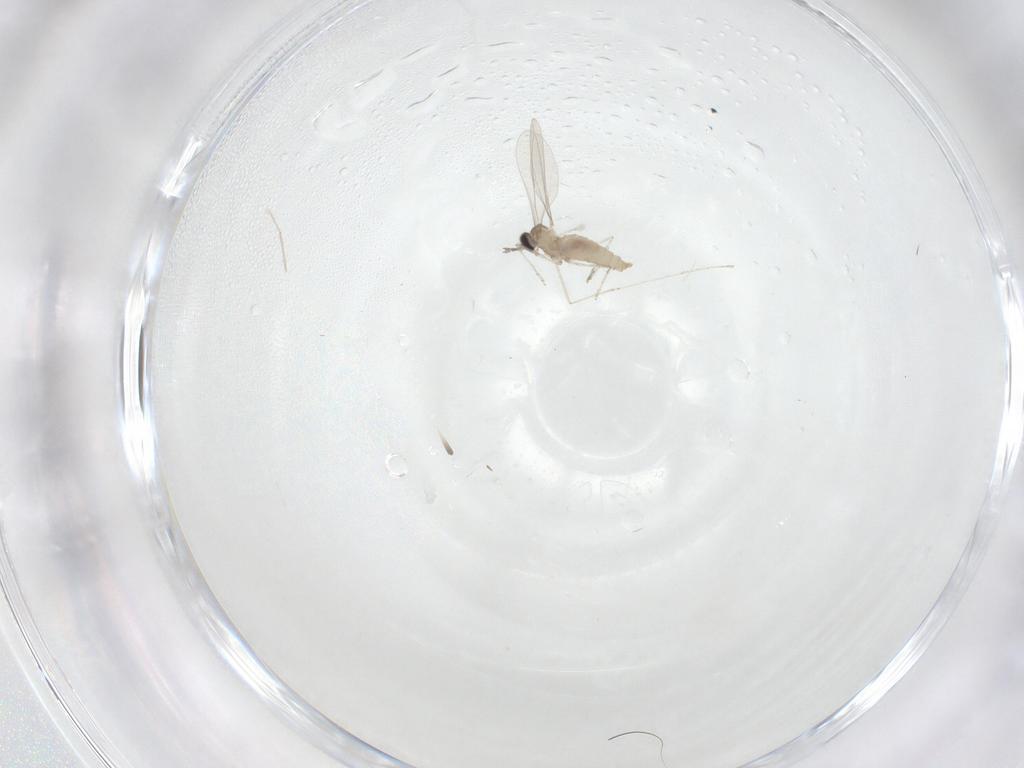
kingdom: Animalia
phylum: Arthropoda
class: Insecta
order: Diptera
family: Cecidomyiidae
